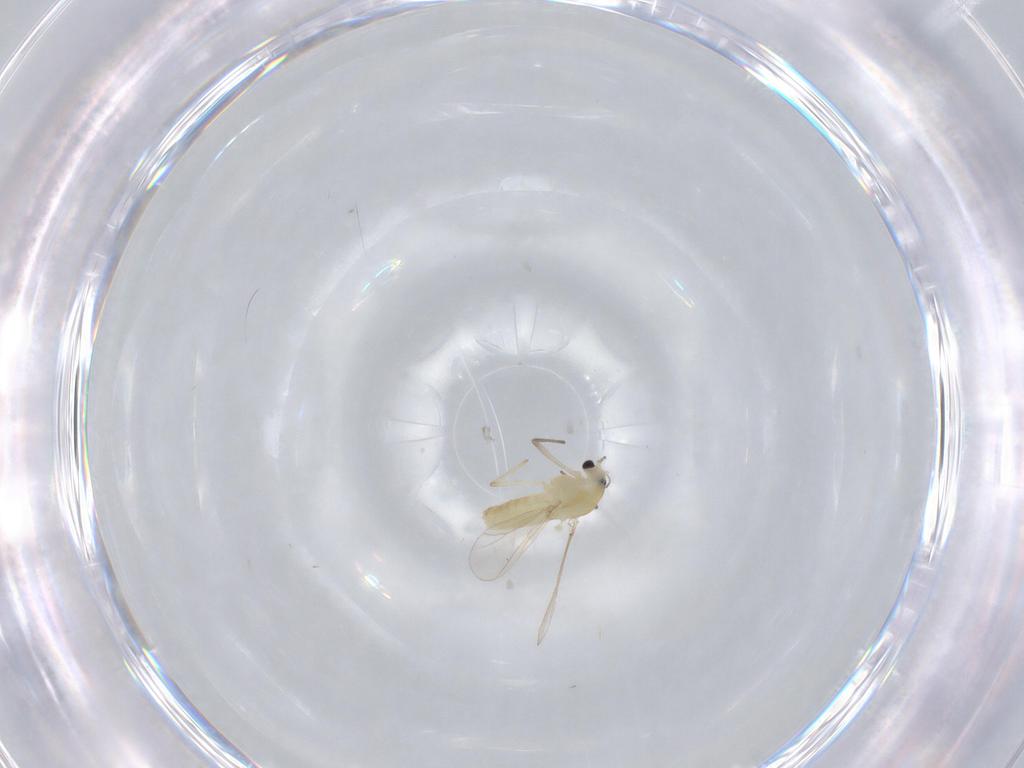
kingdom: Animalia
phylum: Arthropoda
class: Insecta
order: Diptera
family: Chironomidae
